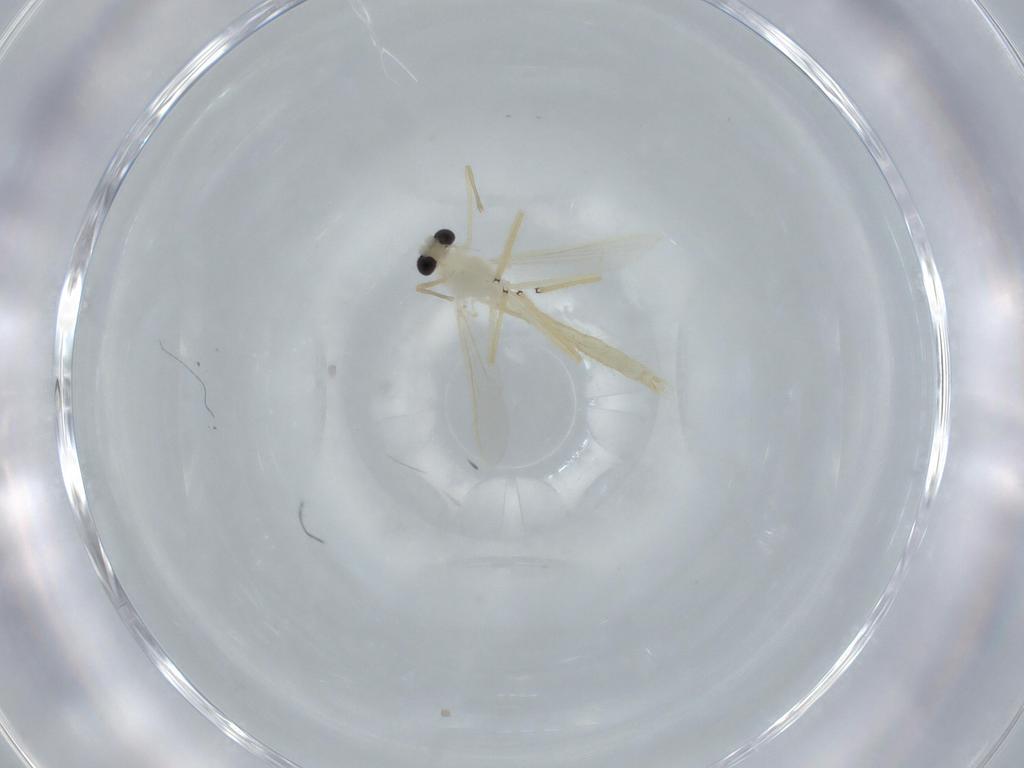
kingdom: Animalia
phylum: Arthropoda
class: Insecta
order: Diptera
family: Chironomidae
